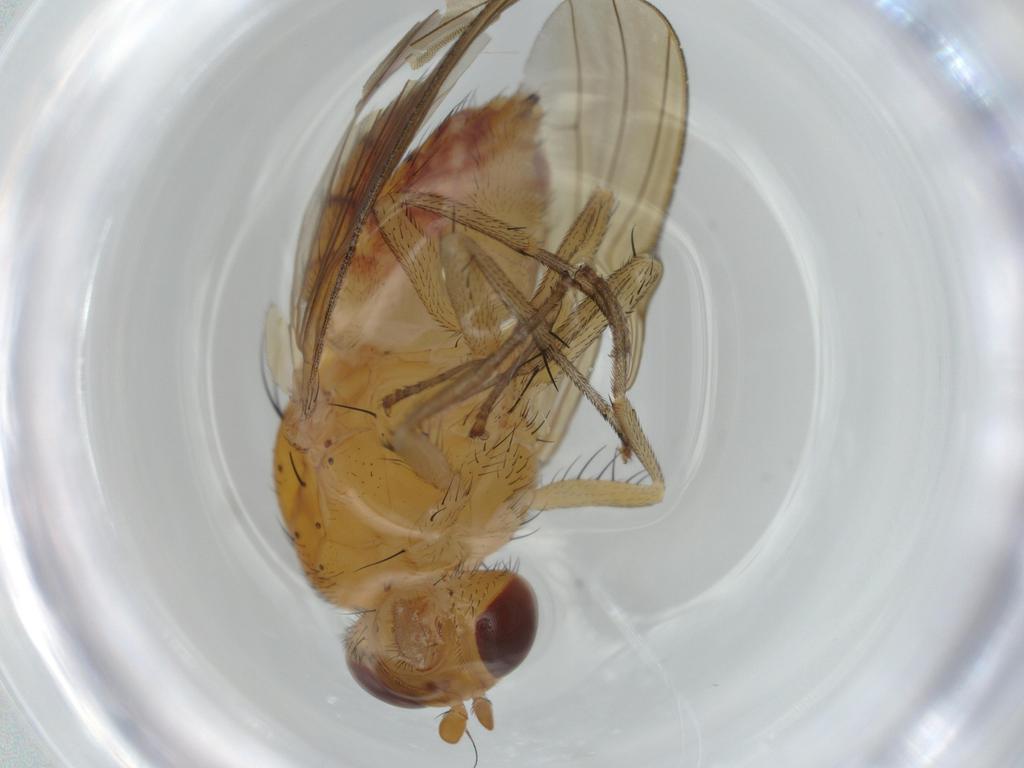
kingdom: Animalia
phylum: Arthropoda
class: Insecta
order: Diptera
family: Lauxaniidae
